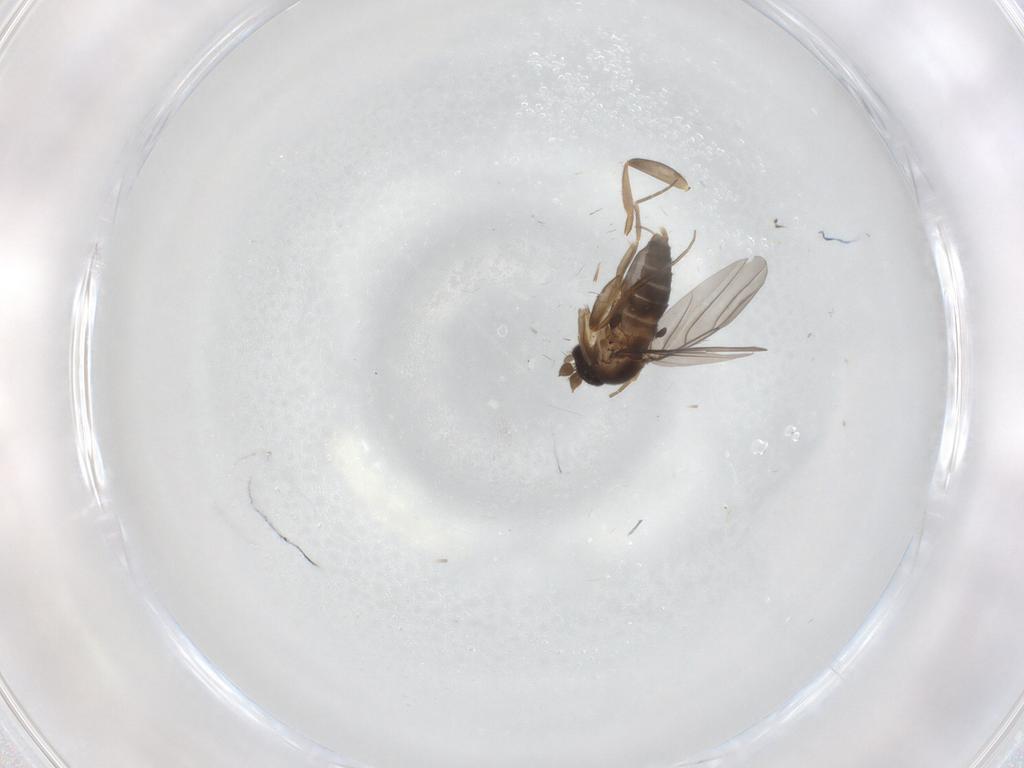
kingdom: Animalia
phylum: Arthropoda
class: Insecta
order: Diptera
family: Phoridae
